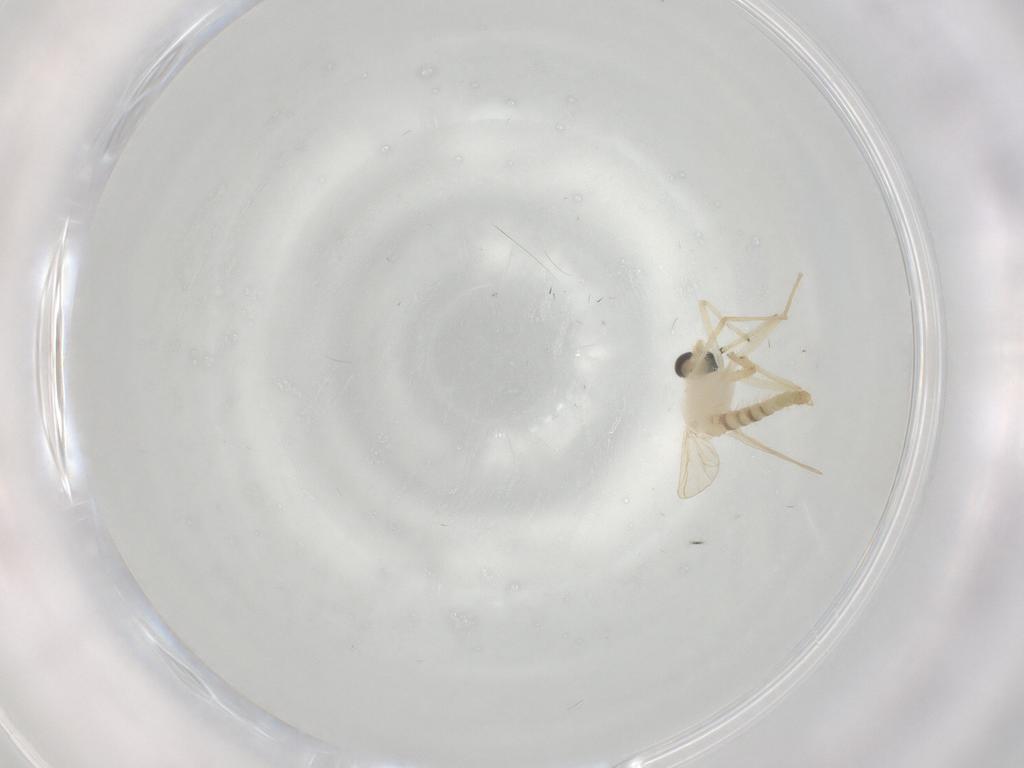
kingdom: Animalia
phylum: Arthropoda
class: Insecta
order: Diptera
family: Chironomidae
